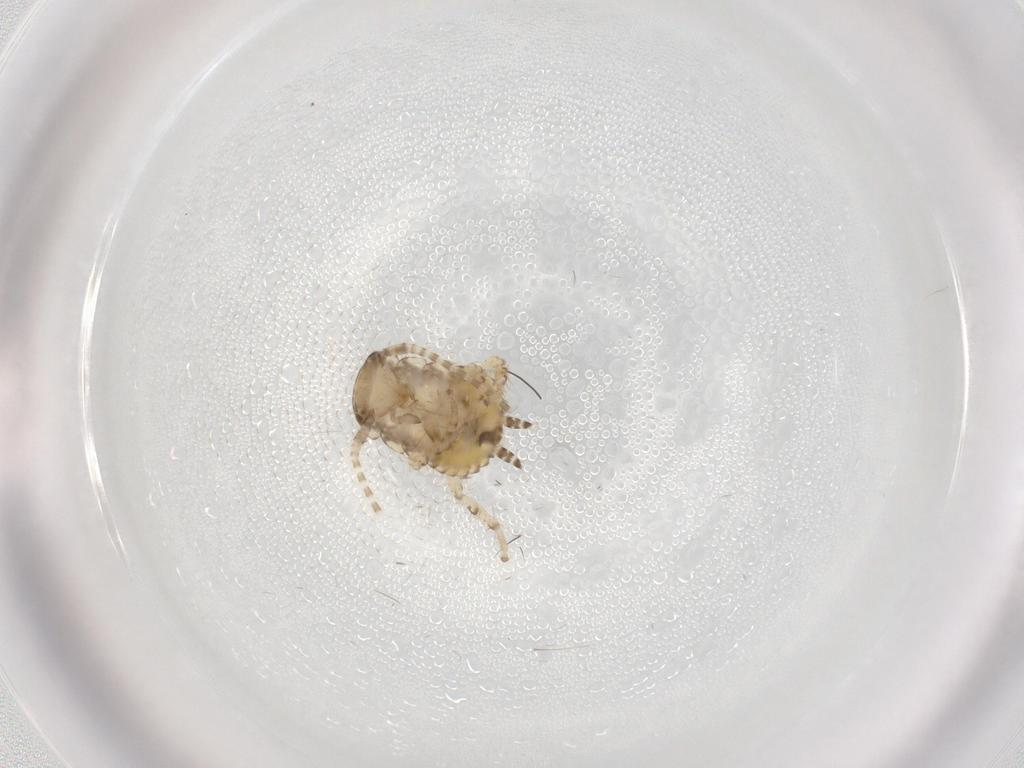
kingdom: Animalia
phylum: Arthropoda
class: Insecta
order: Blattodea
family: Ectobiidae
